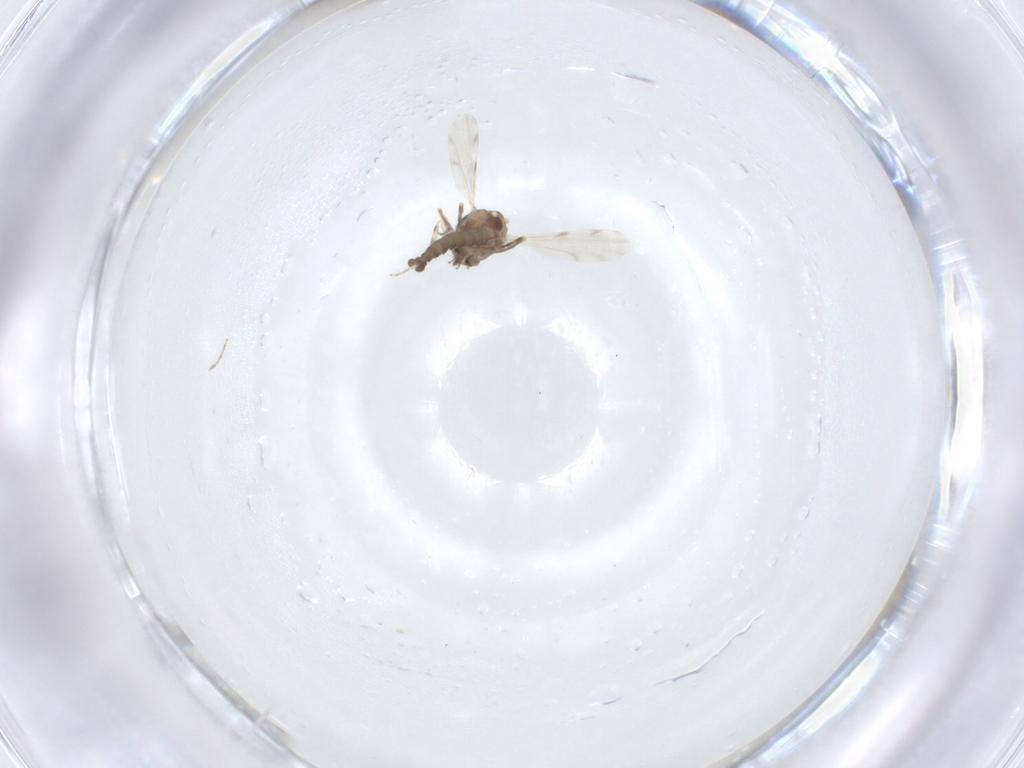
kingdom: Animalia
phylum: Arthropoda
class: Insecta
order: Diptera
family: Ceratopogonidae
